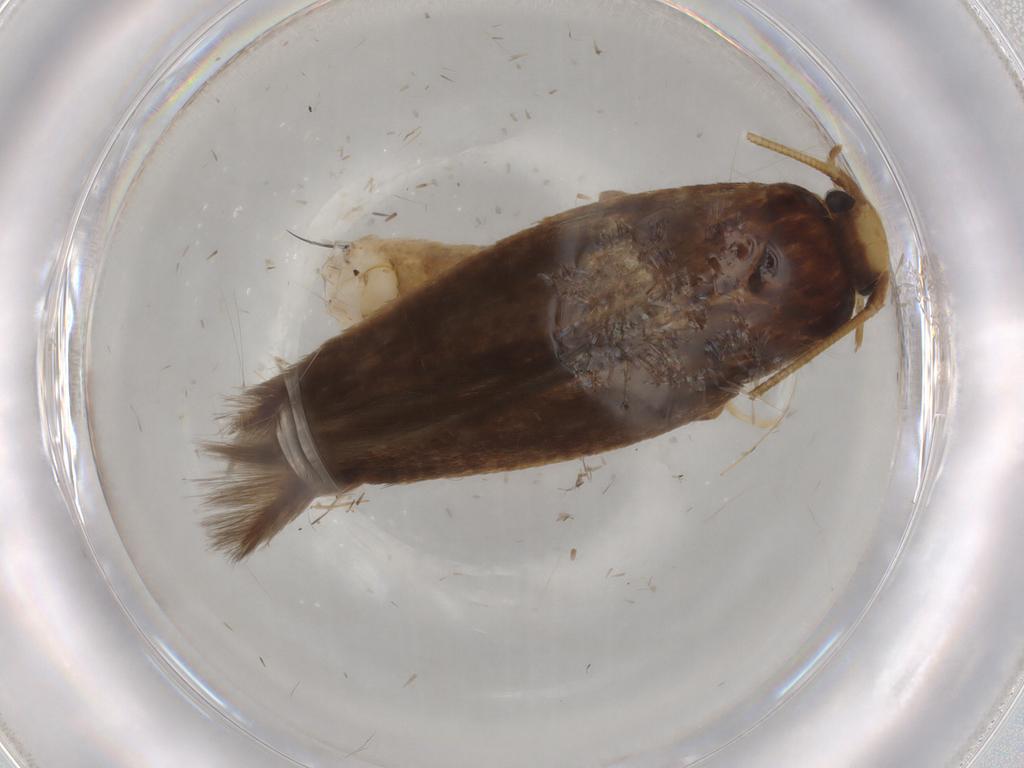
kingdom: Animalia
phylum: Arthropoda
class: Insecta
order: Lepidoptera
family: Tineidae
